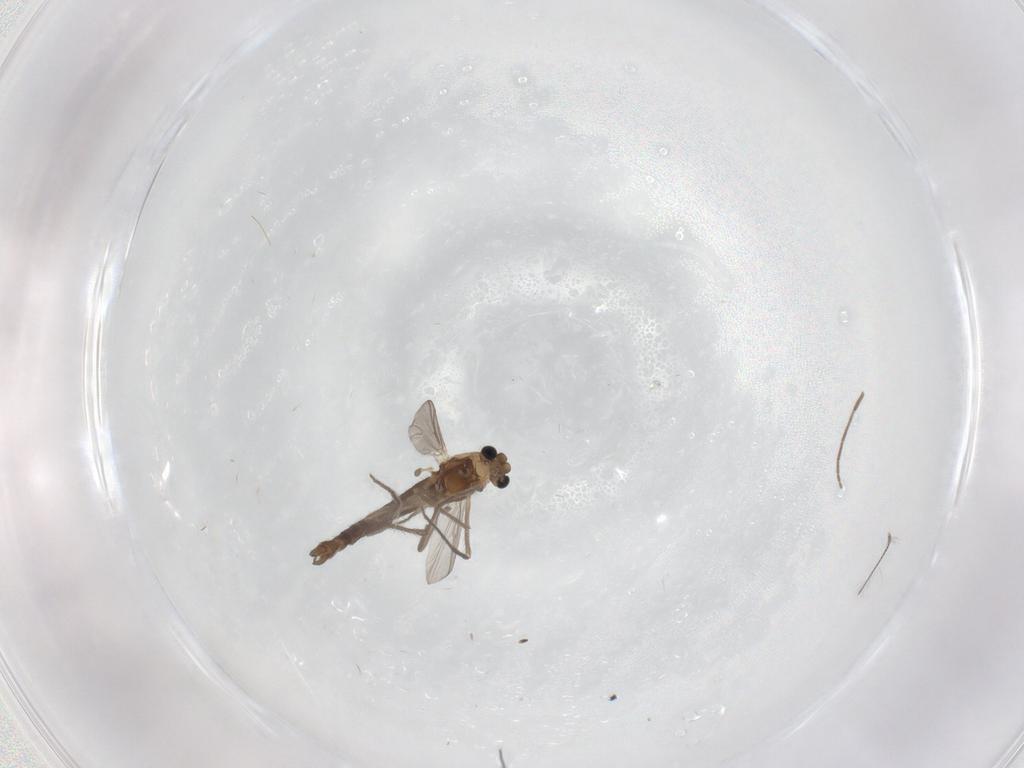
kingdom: Animalia
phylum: Arthropoda
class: Insecta
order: Diptera
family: Chironomidae
